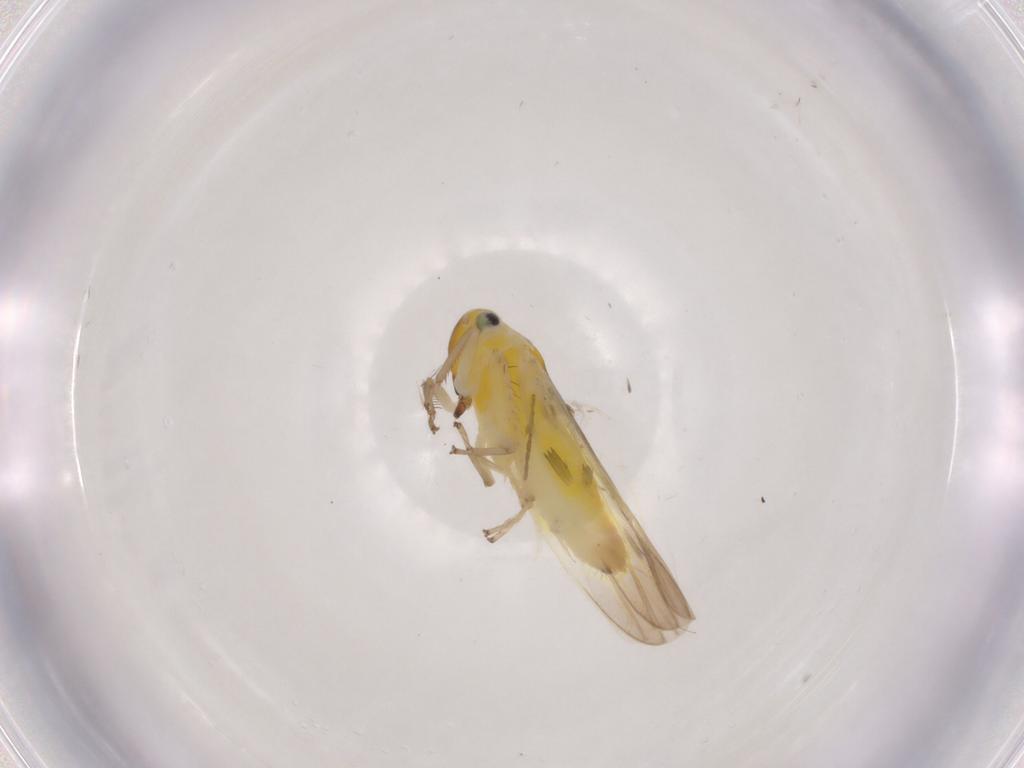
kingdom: Animalia
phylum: Arthropoda
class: Insecta
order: Hemiptera
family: Cicadellidae
